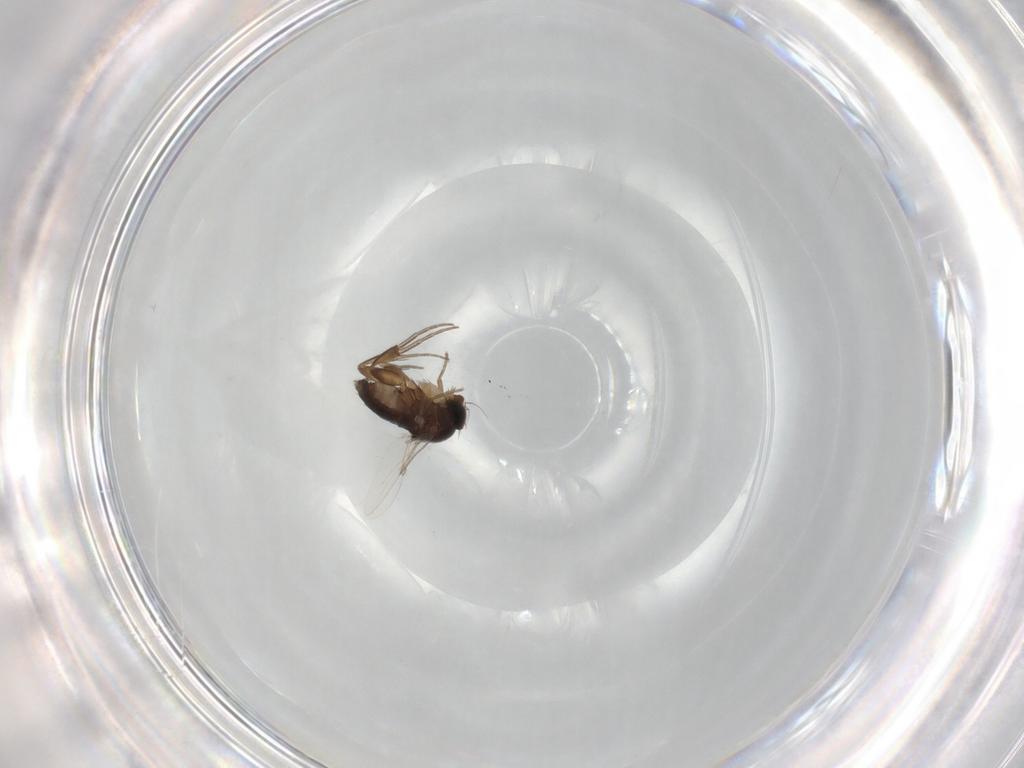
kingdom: Animalia
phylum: Arthropoda
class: Insecta
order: Diptera
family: Phoridae
